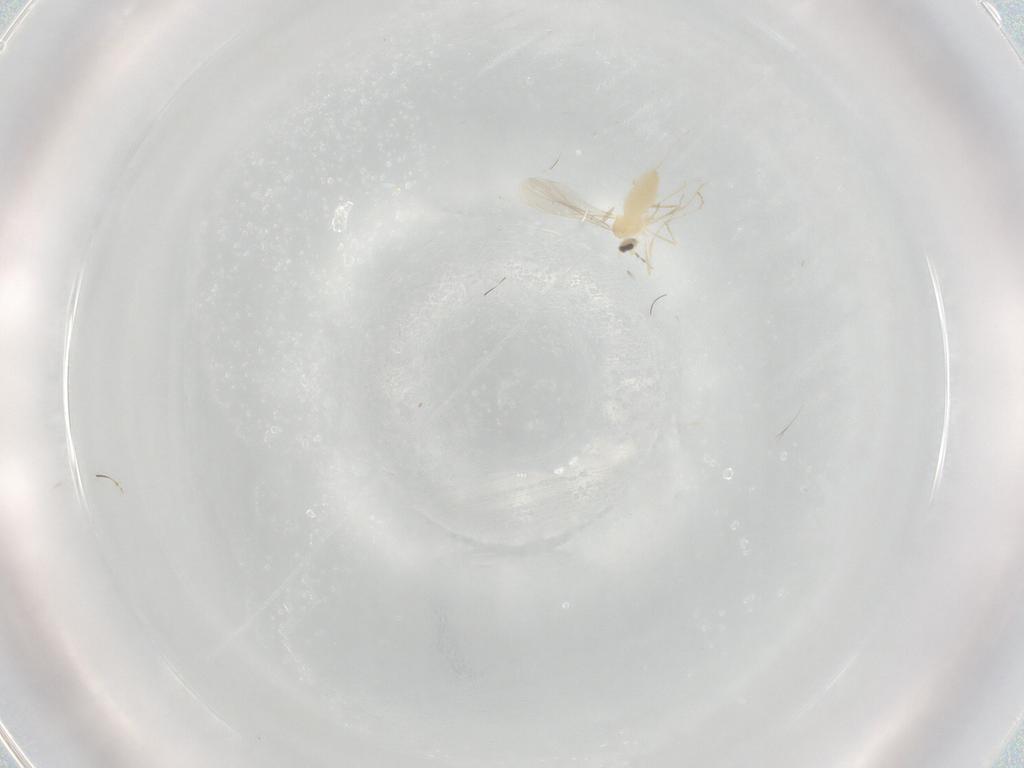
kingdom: Animalia
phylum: Arthropoda
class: Insecta
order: Diptera
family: Cecidomyiidae
